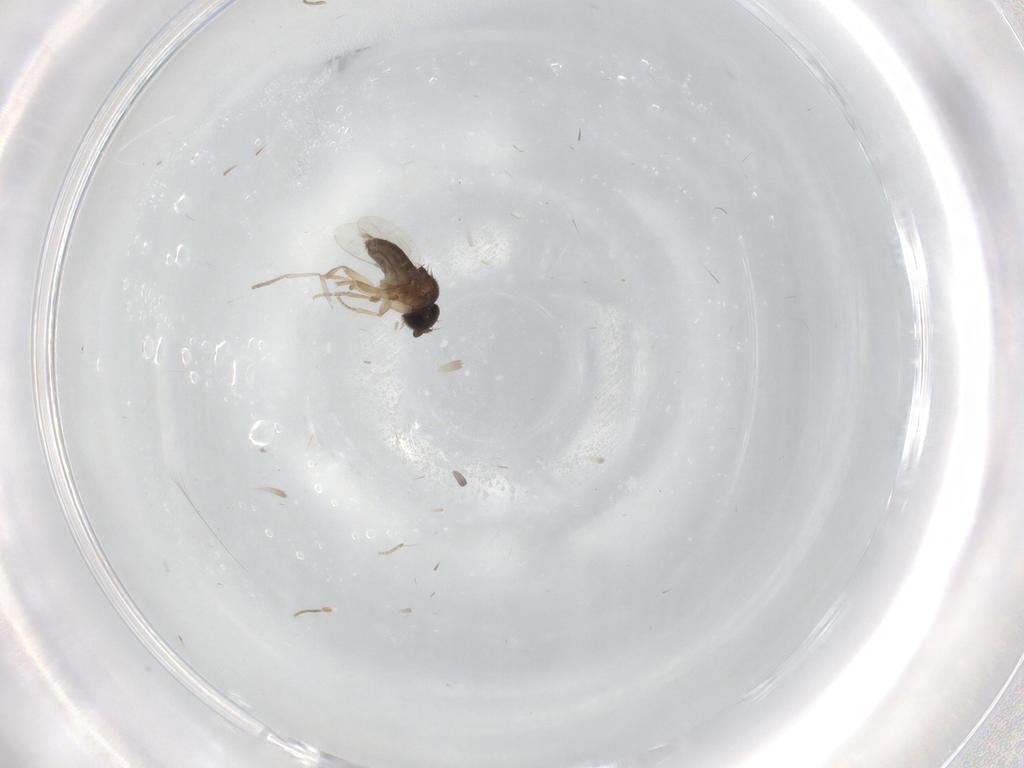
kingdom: Animalia
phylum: Arthropoda
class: Insecta
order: Diptera
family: Phoridae
